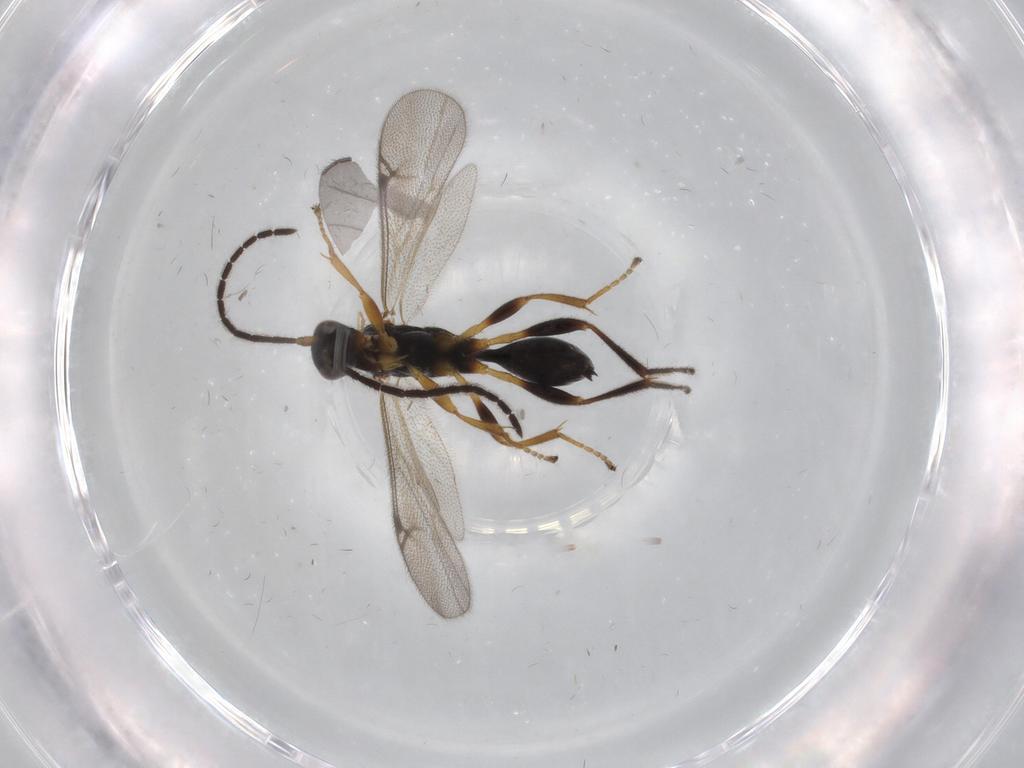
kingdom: Animalia
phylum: Arthropoda
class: Insecta
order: Hymenoptera
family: Proctotrupidae
